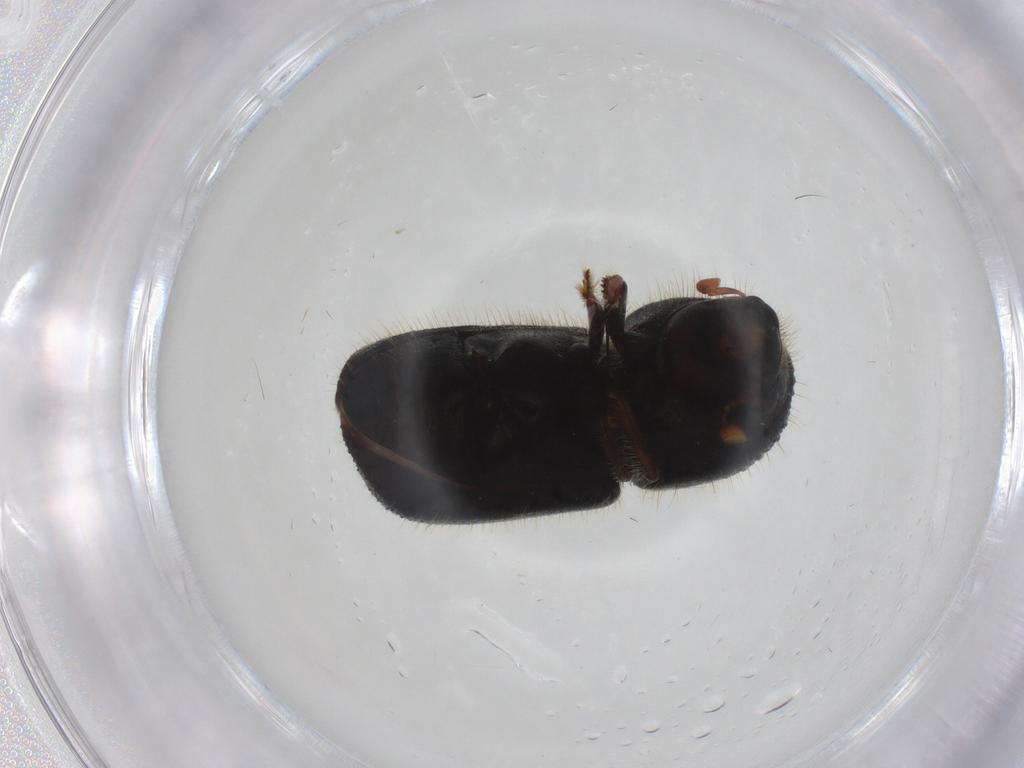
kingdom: Animalia
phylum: Arthropoda
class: Insecta
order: Coleoptera
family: Curculionidae
